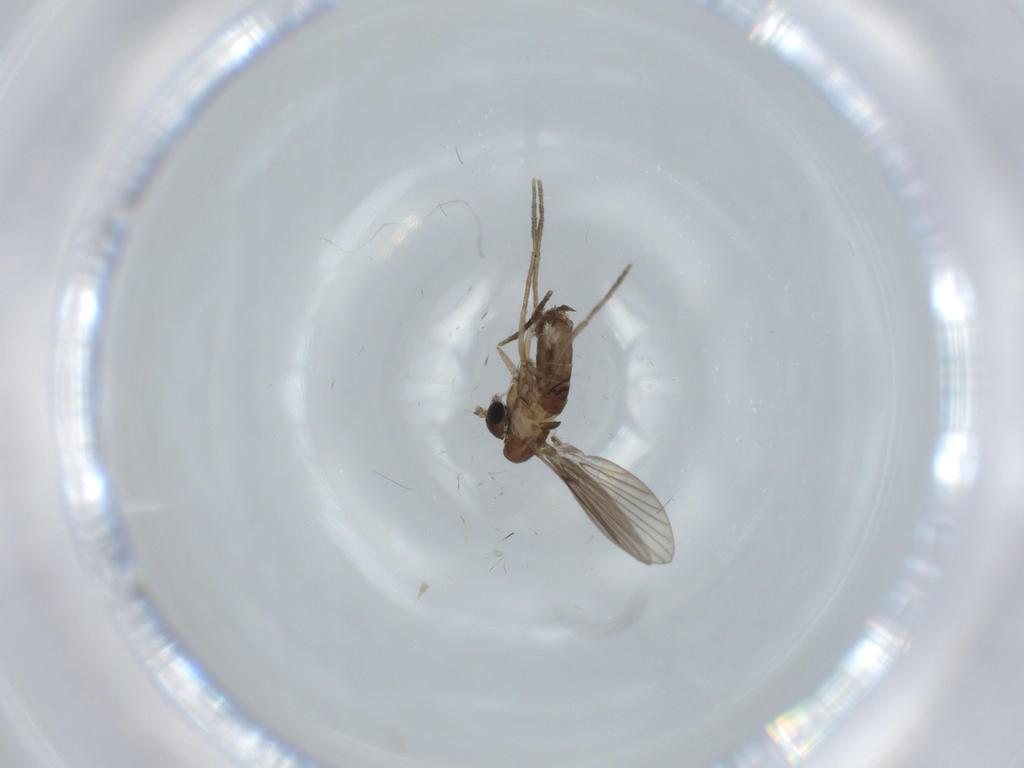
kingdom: Animalia
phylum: Arthropoda
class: Insecta
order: Diptera
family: Psychodidae
